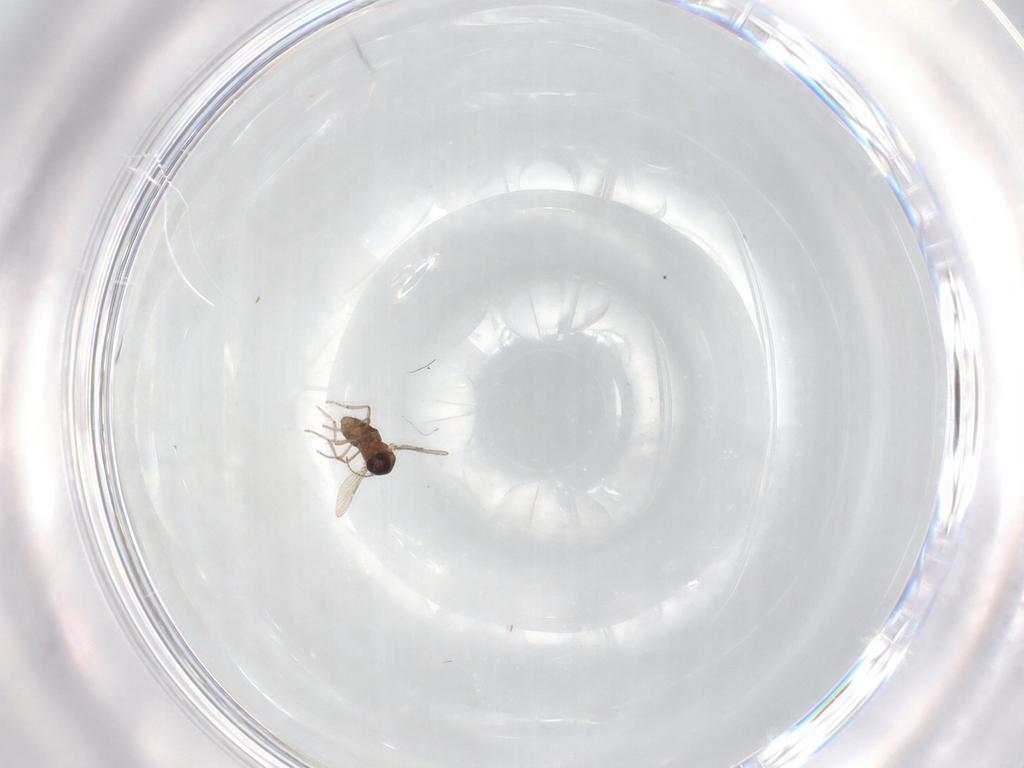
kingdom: Animalia
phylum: Arthropoda
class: Insecta
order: Diptera
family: Ceratopogonidae
